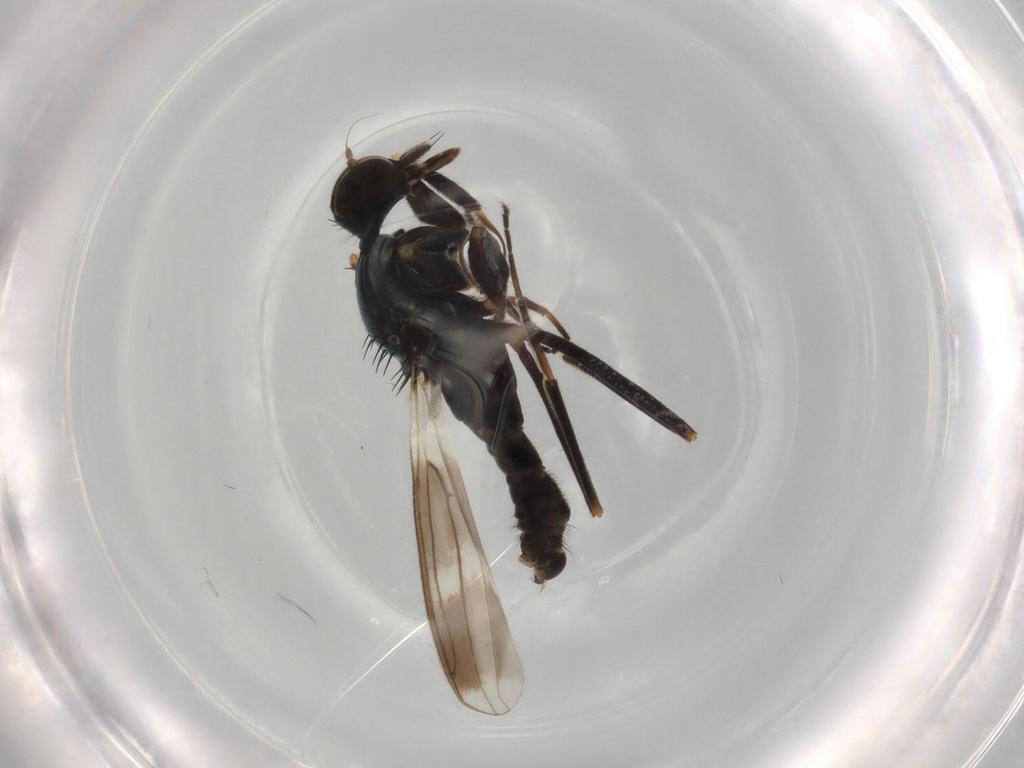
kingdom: Animalia
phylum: Arthropoda
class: Insecta
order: Diptera
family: Hybotidae
